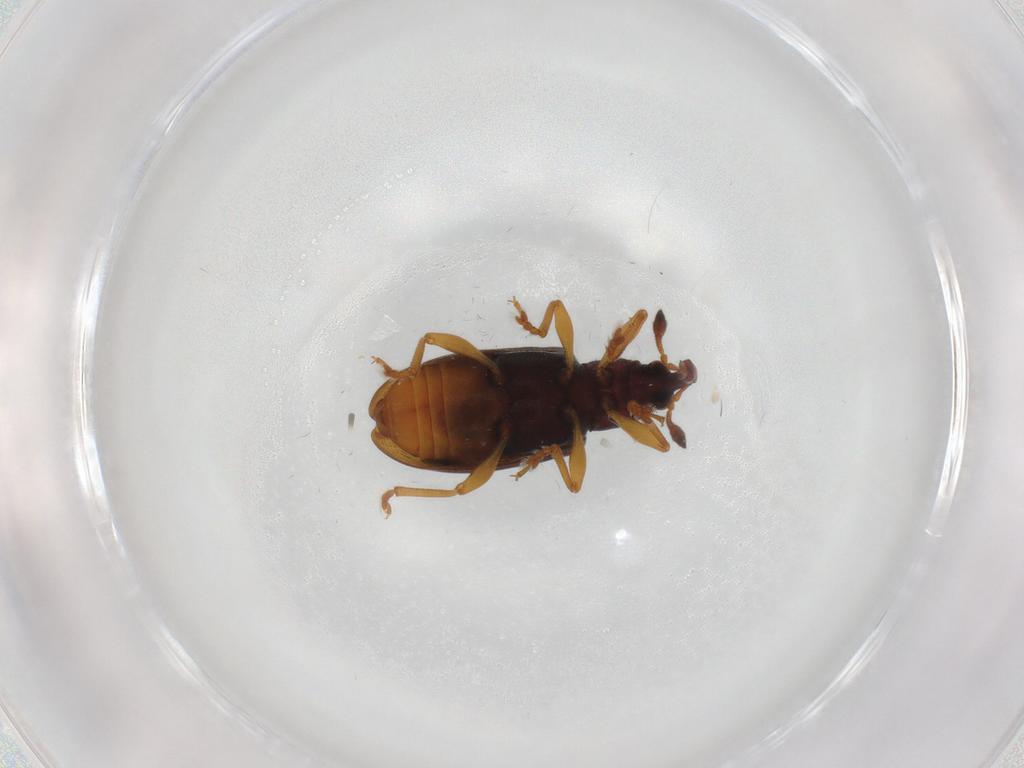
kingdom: Animalia
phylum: Arthropoda
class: Insecta
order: Coleoptera
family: Curculionidae
